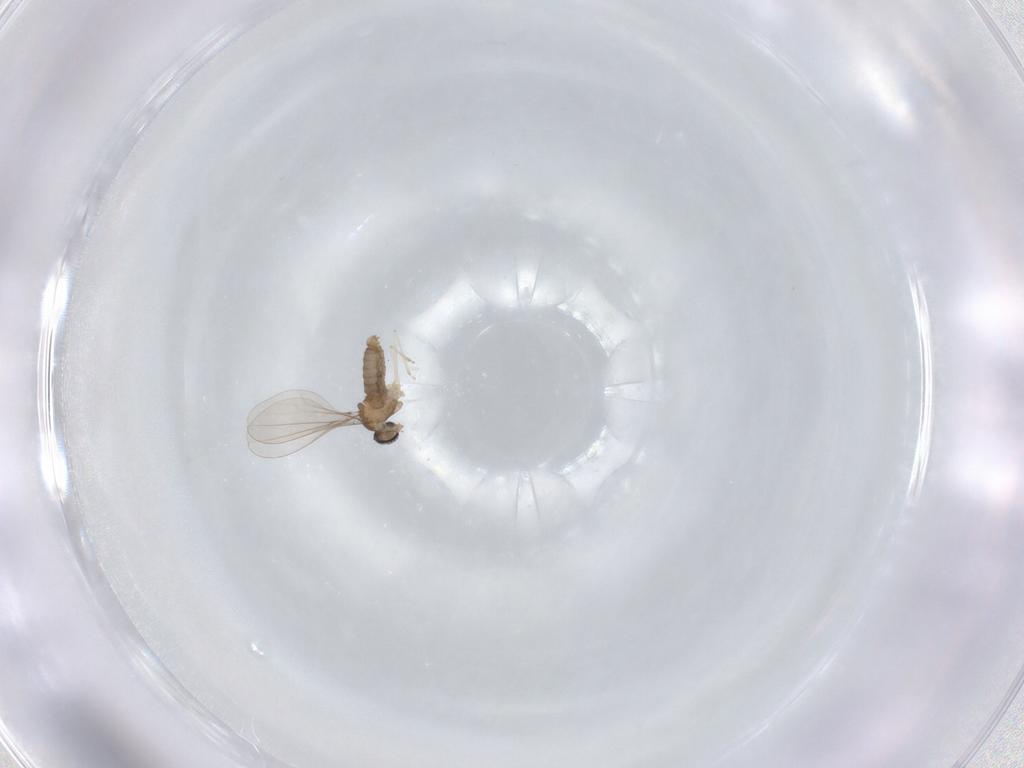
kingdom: Animalia
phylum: Arthropoda
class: Insecta
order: Diptera
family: Cecidomyiidae
